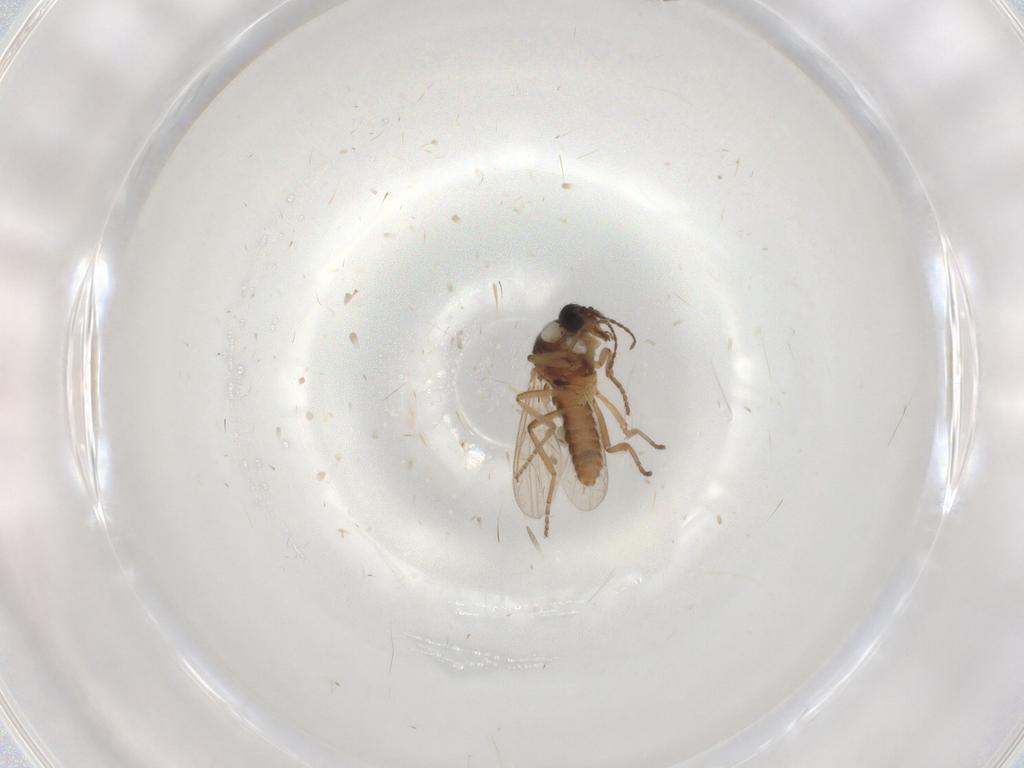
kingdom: Animalia
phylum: Arthropoda
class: Insecta
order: Diptera
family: Ceratopogonidae
